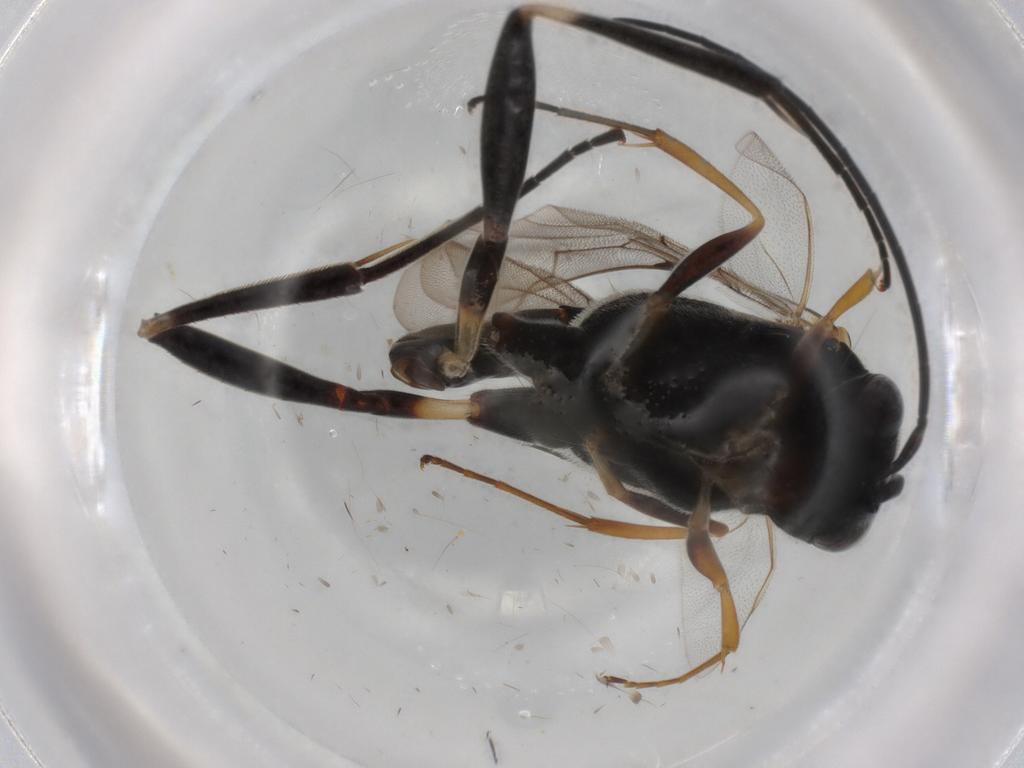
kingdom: Animalia
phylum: Arthropoda
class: Insecta
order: Hymenoptera
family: Evaniidae
